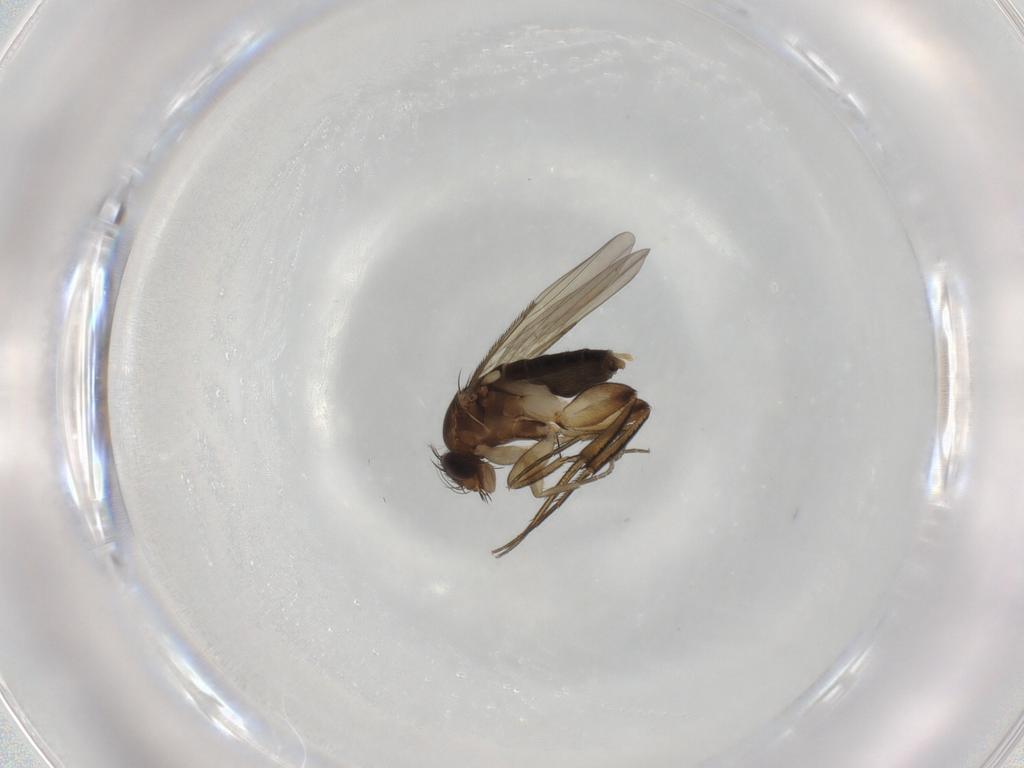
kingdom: Animalia
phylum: Arthropoda
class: Insecta
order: Diptera
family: Phoridae
